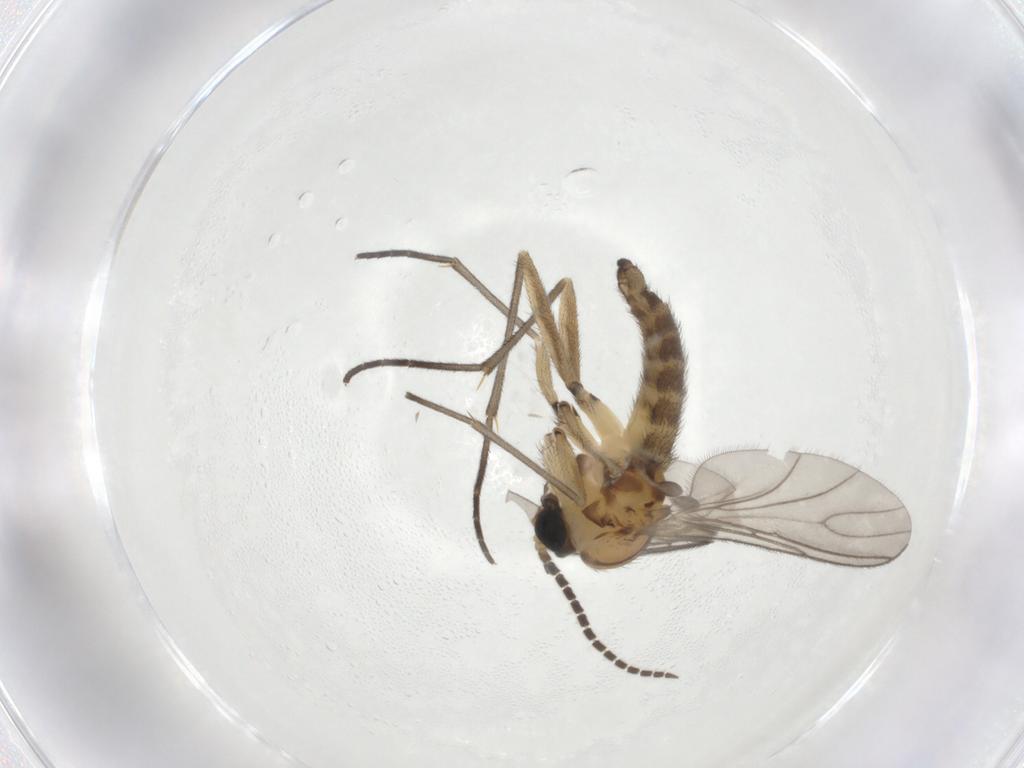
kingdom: Animalia
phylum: Arthropoda
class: Insecta
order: Diptera
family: Sciaridae
